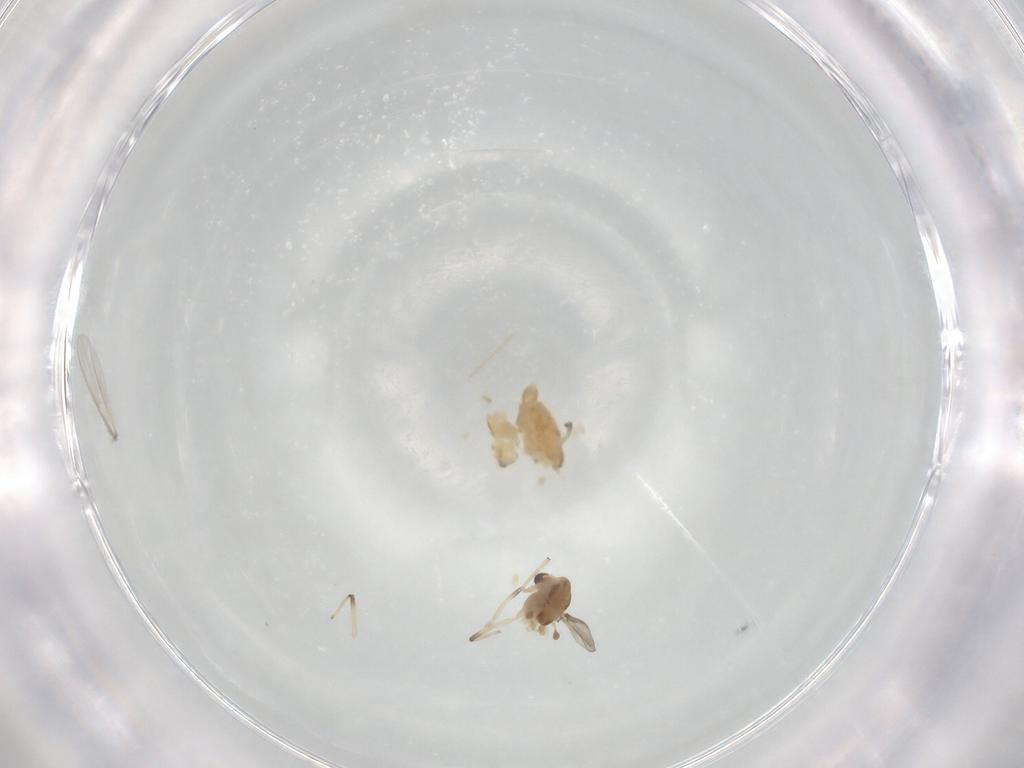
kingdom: Animalia
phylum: Arthropoda
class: Insecta
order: Diptera
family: Chironomidae
